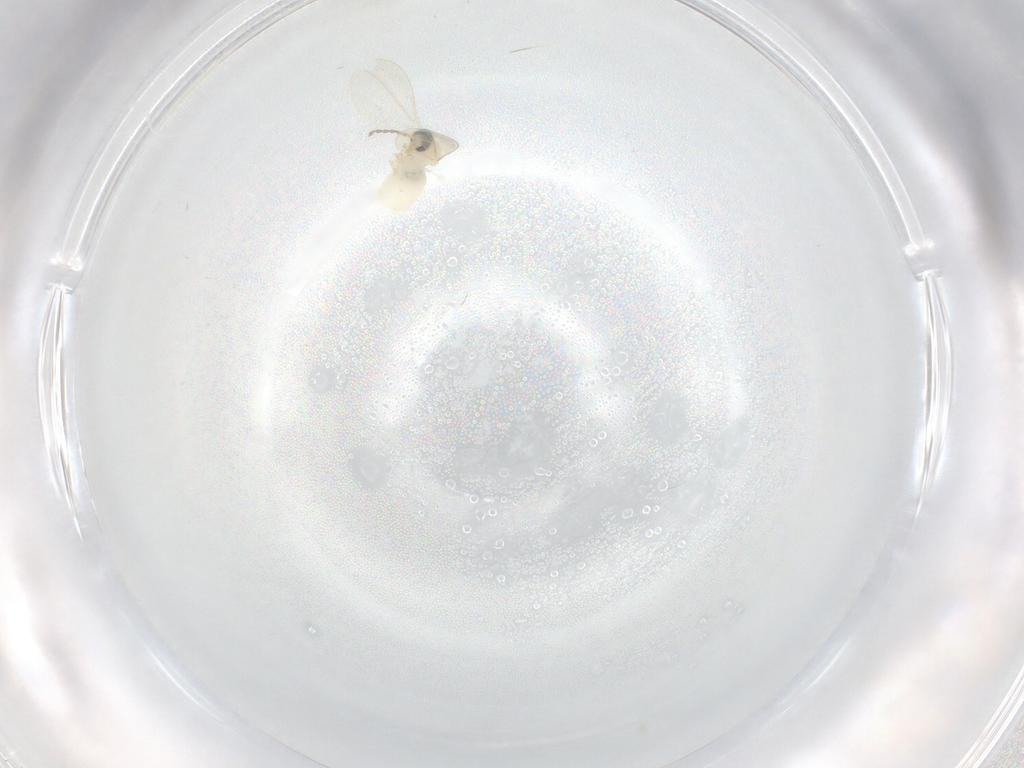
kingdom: Animalia
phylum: Arthropoda
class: Insecta
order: Diptera
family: Cecidomyiidae
